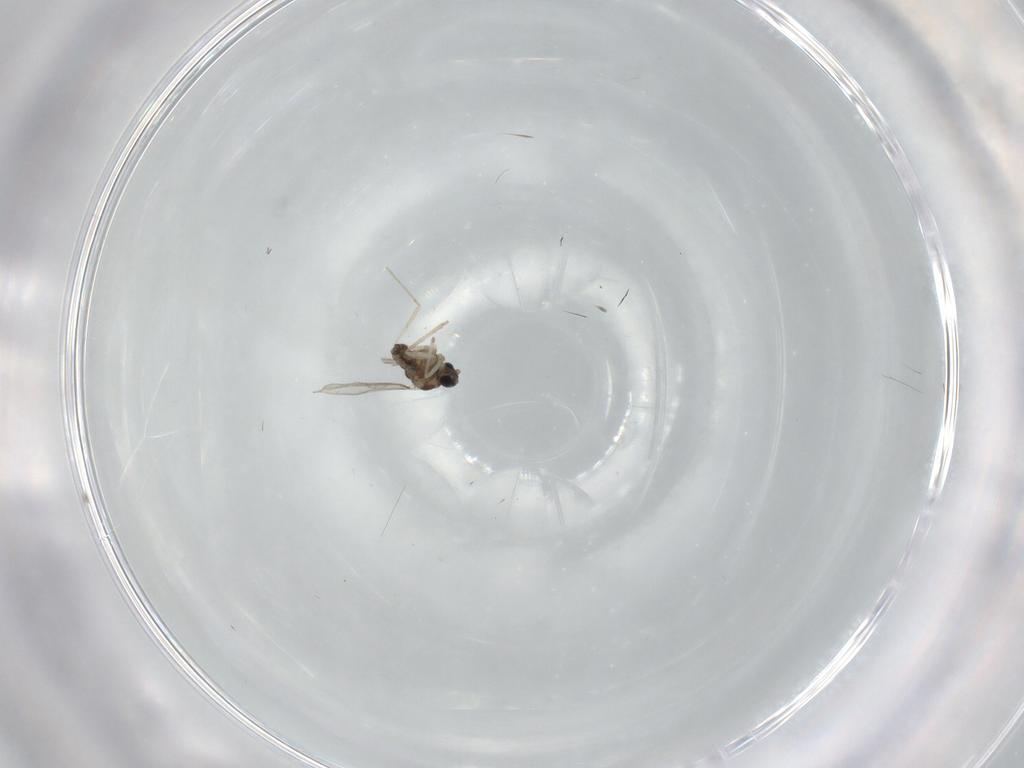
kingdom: Animalia
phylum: Arthropoda
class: Insecta
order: Diptera
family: Cecidomyiidae
